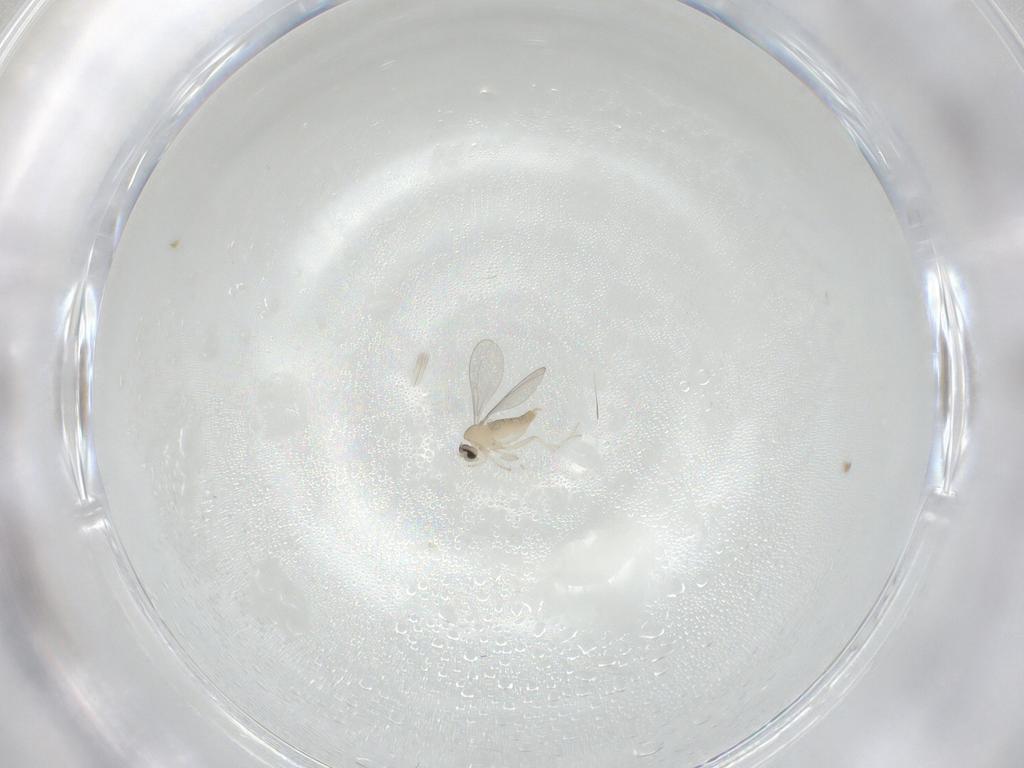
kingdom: Animalia
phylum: Arthropoda
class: Insecta
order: Diptera
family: Cecidomyiidae
